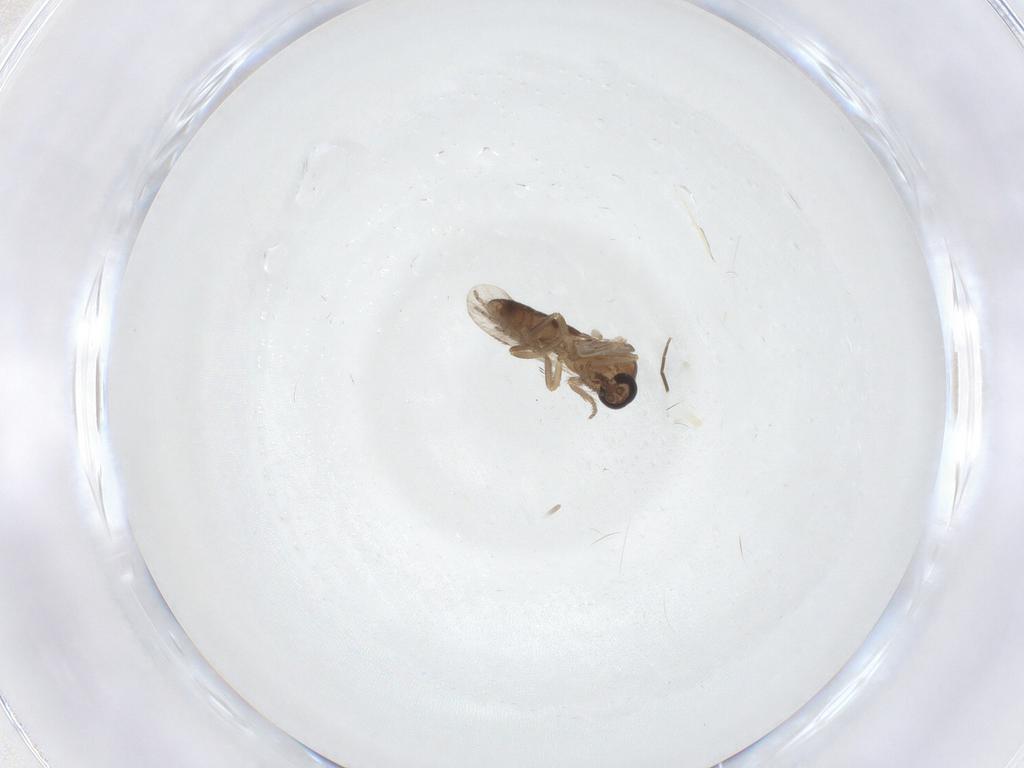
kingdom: Animalia
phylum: Arthropoda
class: Insecta
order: Diptera
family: Ceratopogonidae
